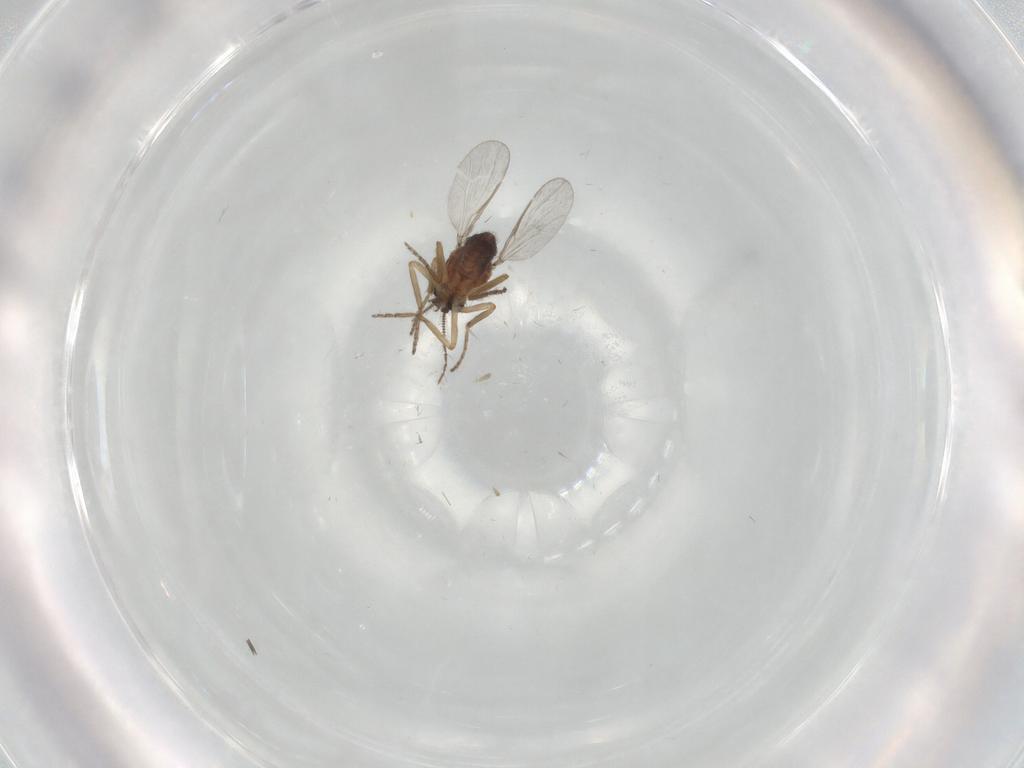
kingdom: Animalia
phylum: Arthropoda
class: Insecta
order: Diptera
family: Ceratopogonidae
